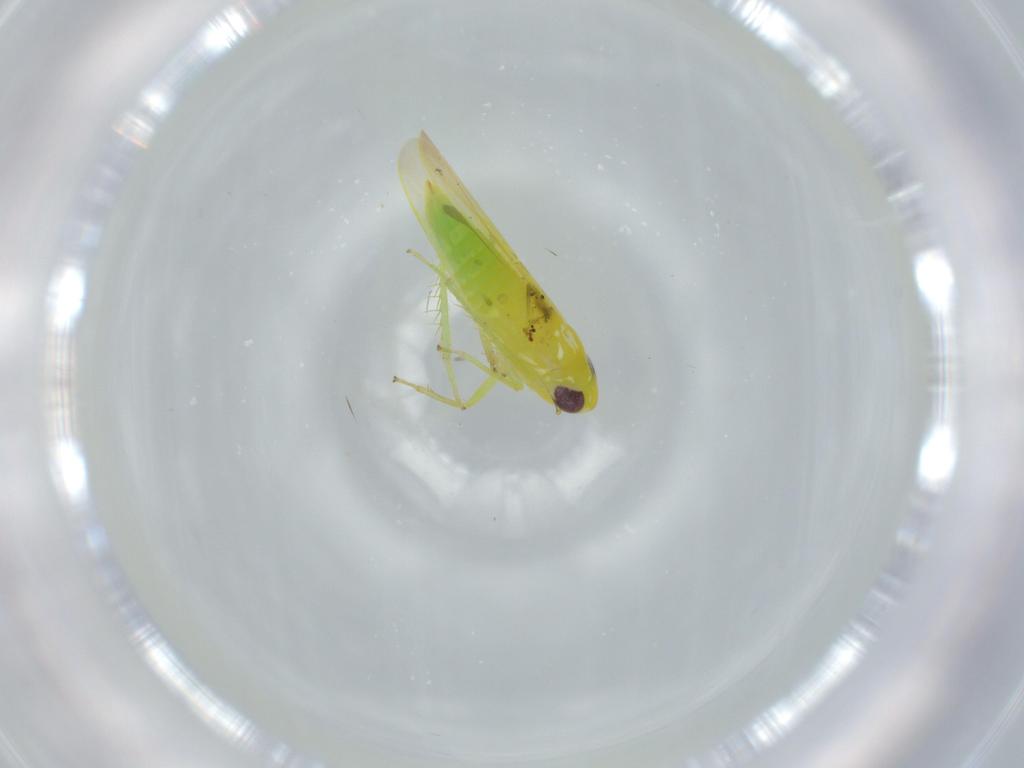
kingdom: Animalia
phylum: Arthropoda
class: Insecta
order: Hemiptera
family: Cicadellidae
